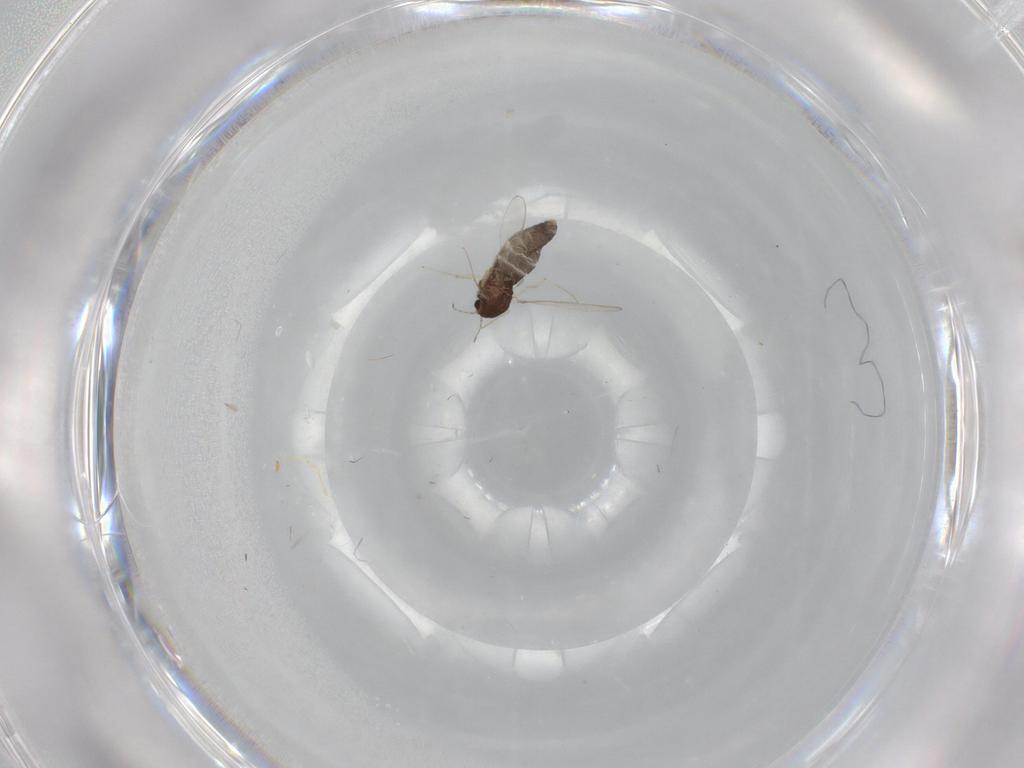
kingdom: Animalia
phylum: Arthropoda
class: Insecta
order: Diptera
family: Chironomidae
